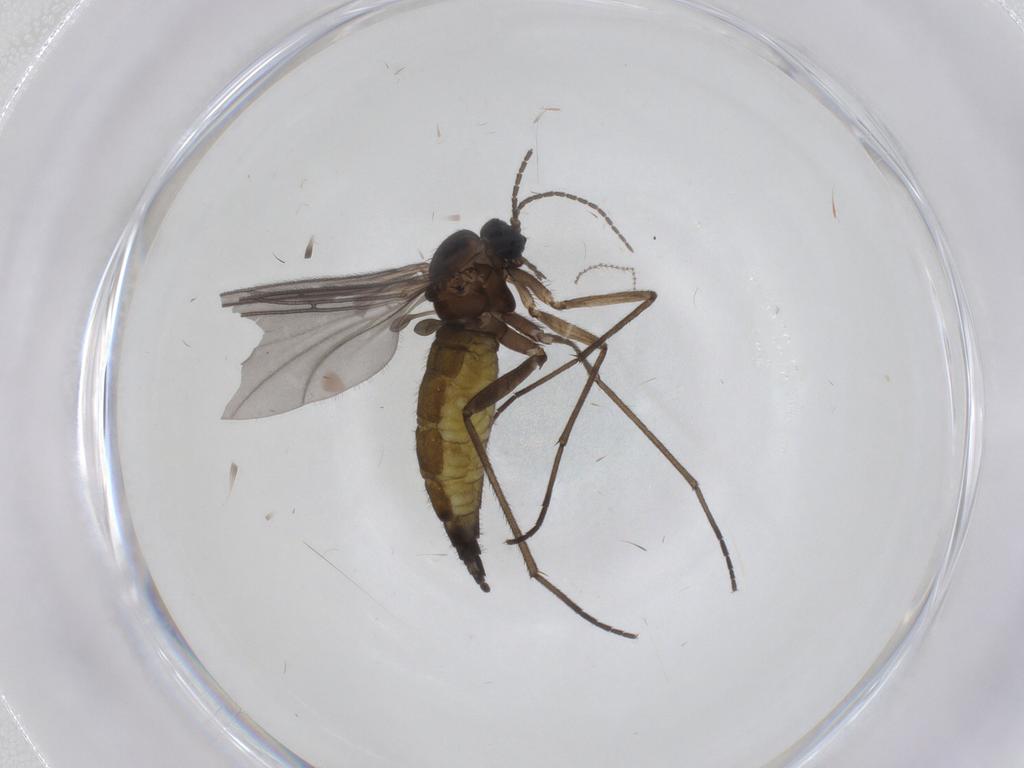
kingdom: Animalia
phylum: Arthropoda
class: Insecta
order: Diptera
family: Sciaridae
